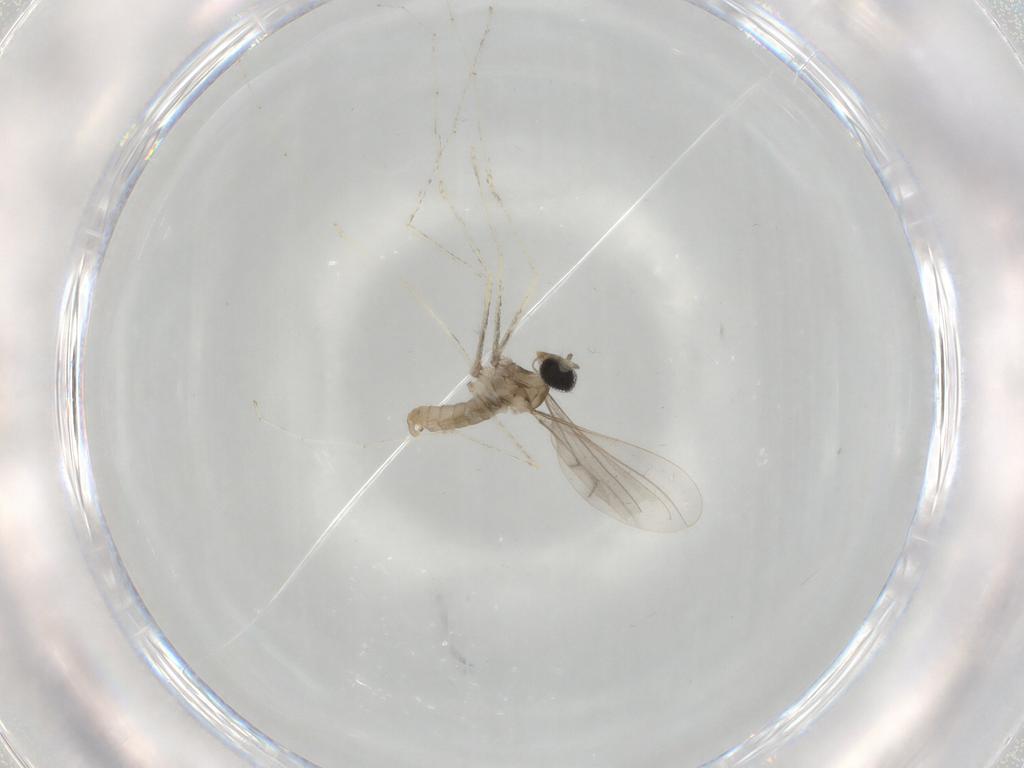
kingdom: Animalia
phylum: Arthropoda
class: Insecta
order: Diptera
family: Cecidomyiidae
